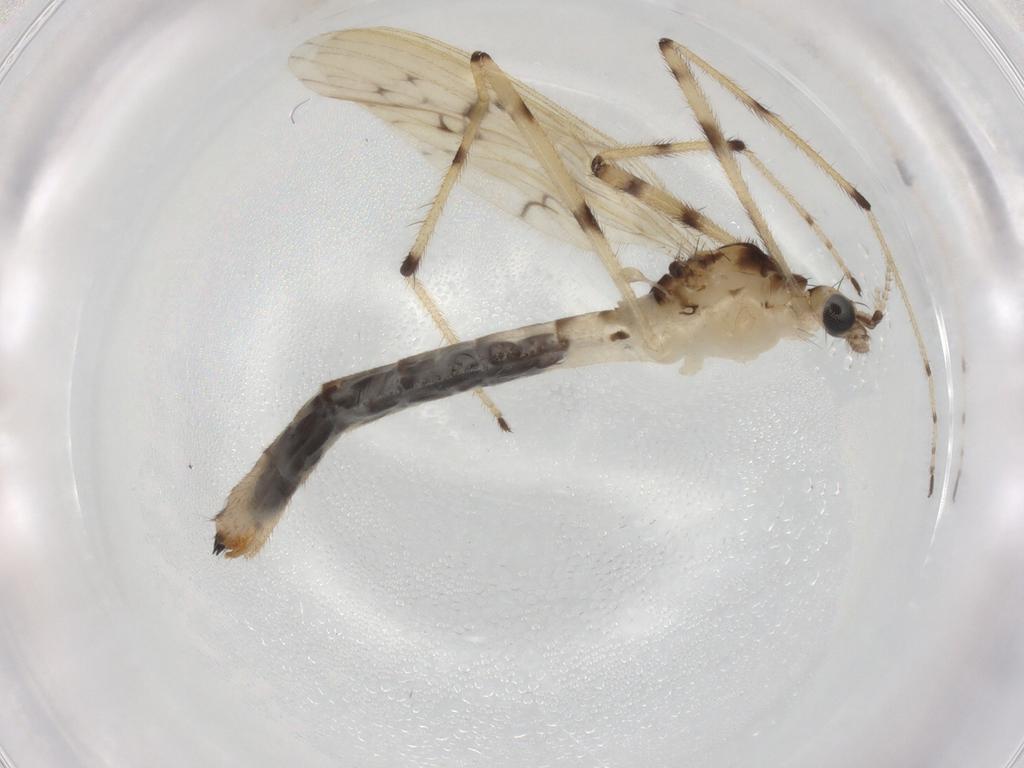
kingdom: Animalia
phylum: Arthropoda
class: Insecta
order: Diptera
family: Limoniidae
